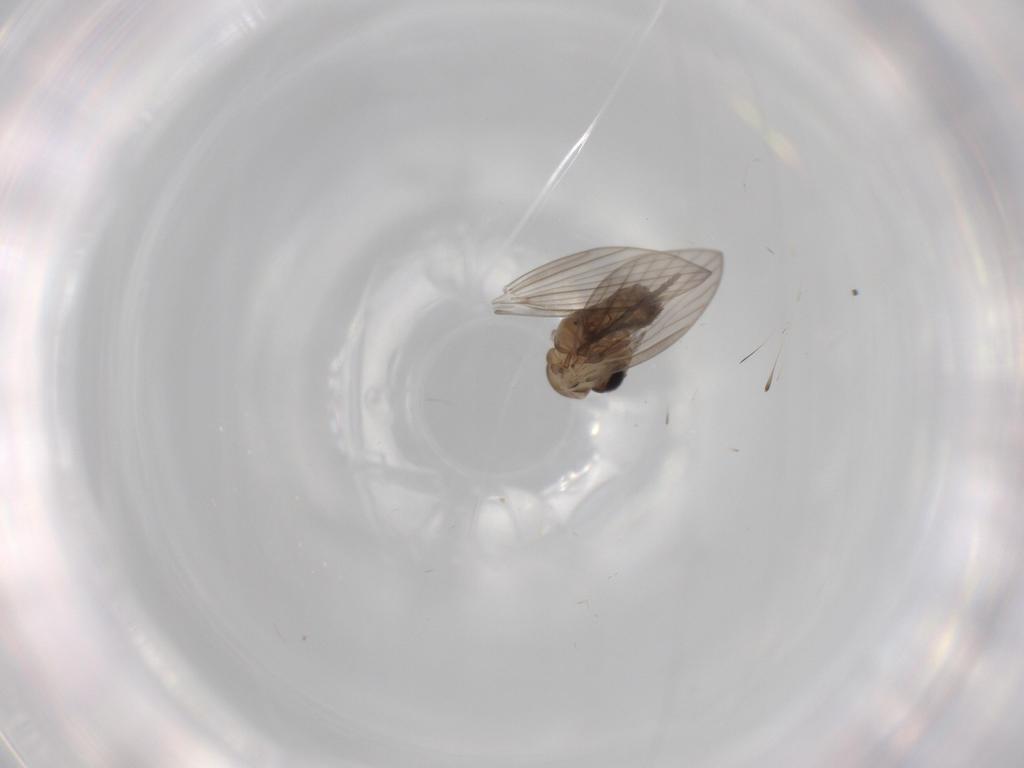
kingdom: Animalia
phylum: Arthropoda
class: Insecta
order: Diptera
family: Psychodidae
